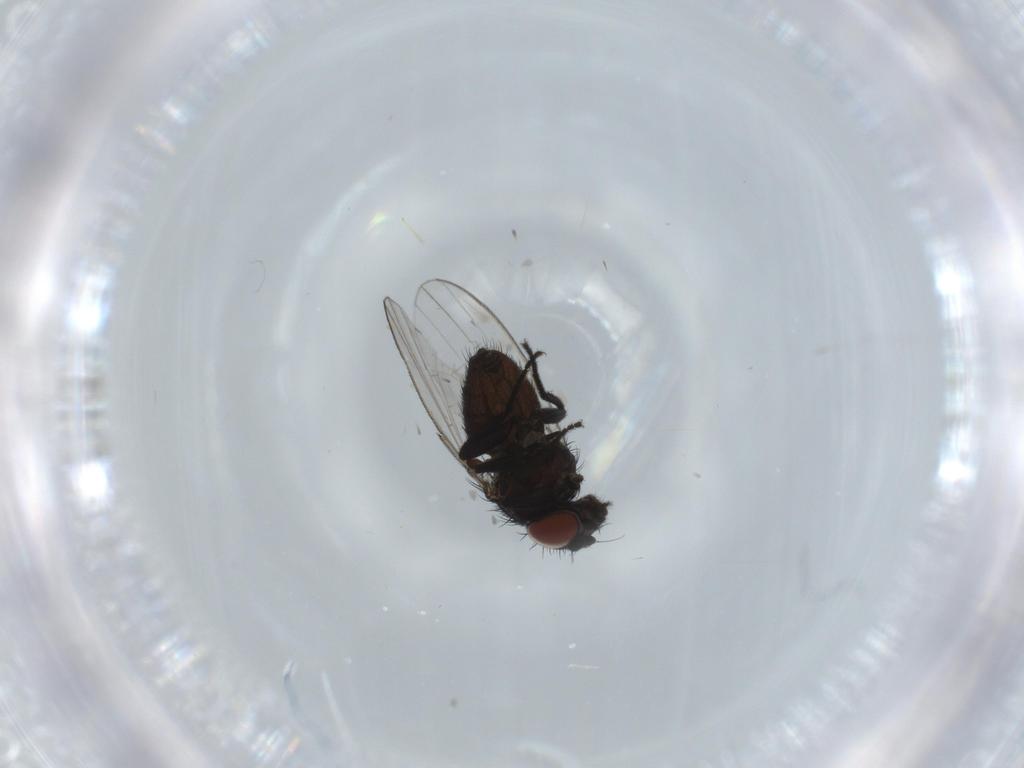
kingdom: Animalia
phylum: Arthropoda
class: Insecta
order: Diptera
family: Milichiidae
